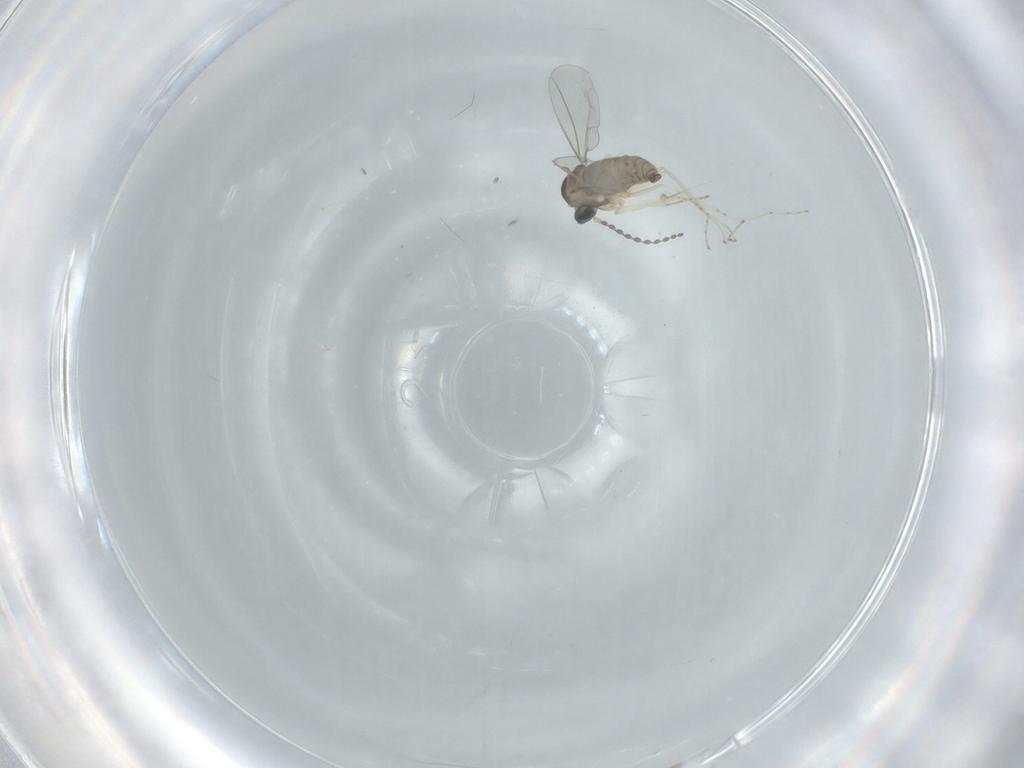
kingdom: Animalia
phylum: Arthropoda
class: Insecta
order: Diptera
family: Cecidomyiidae
